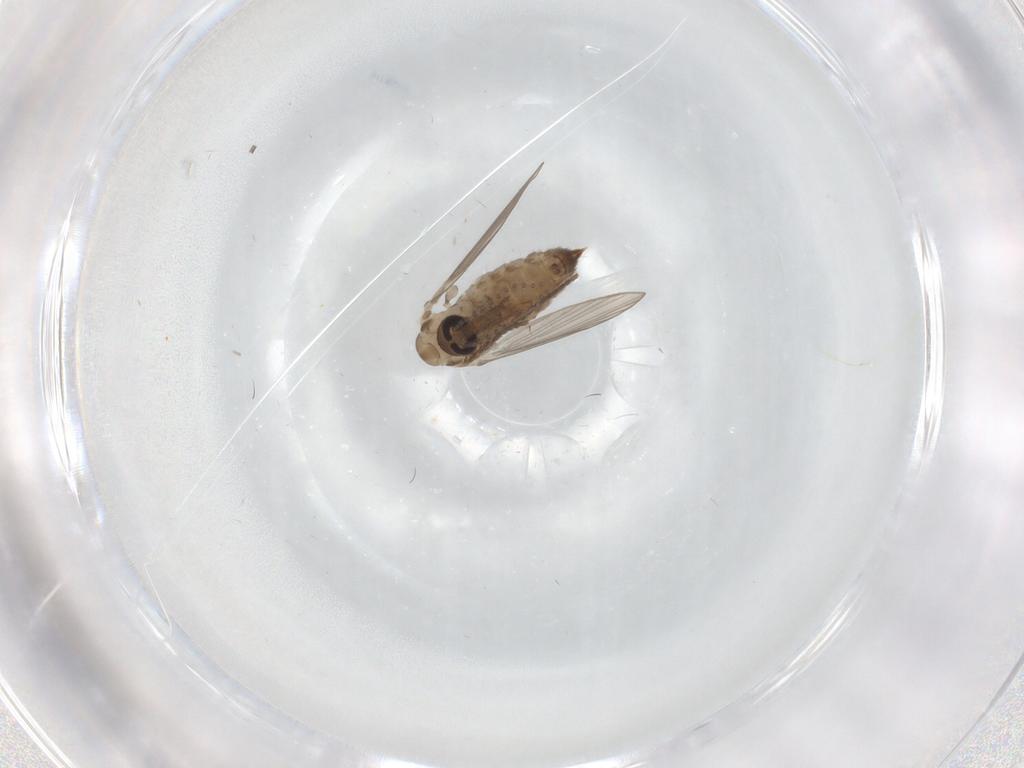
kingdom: Animalia
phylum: Arthropoda
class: Insecta
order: Diptera
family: Psychodidae
